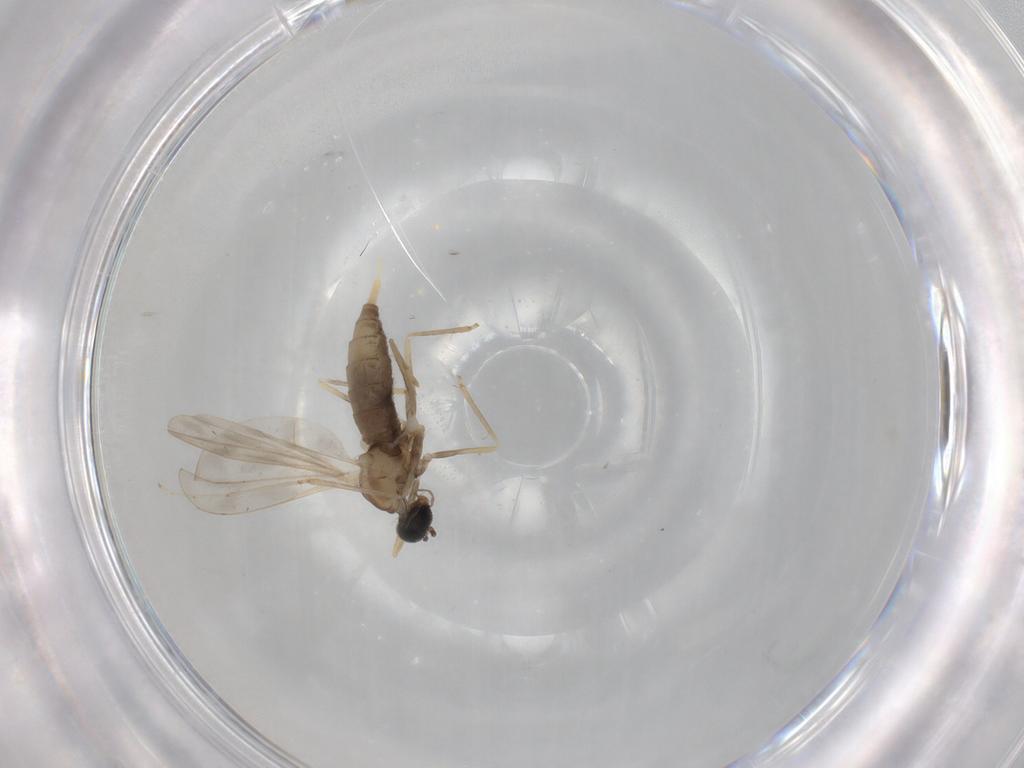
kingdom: Animalia
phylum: Arthropoda
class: Insecta
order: Diptera
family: Cecidomyiidae
